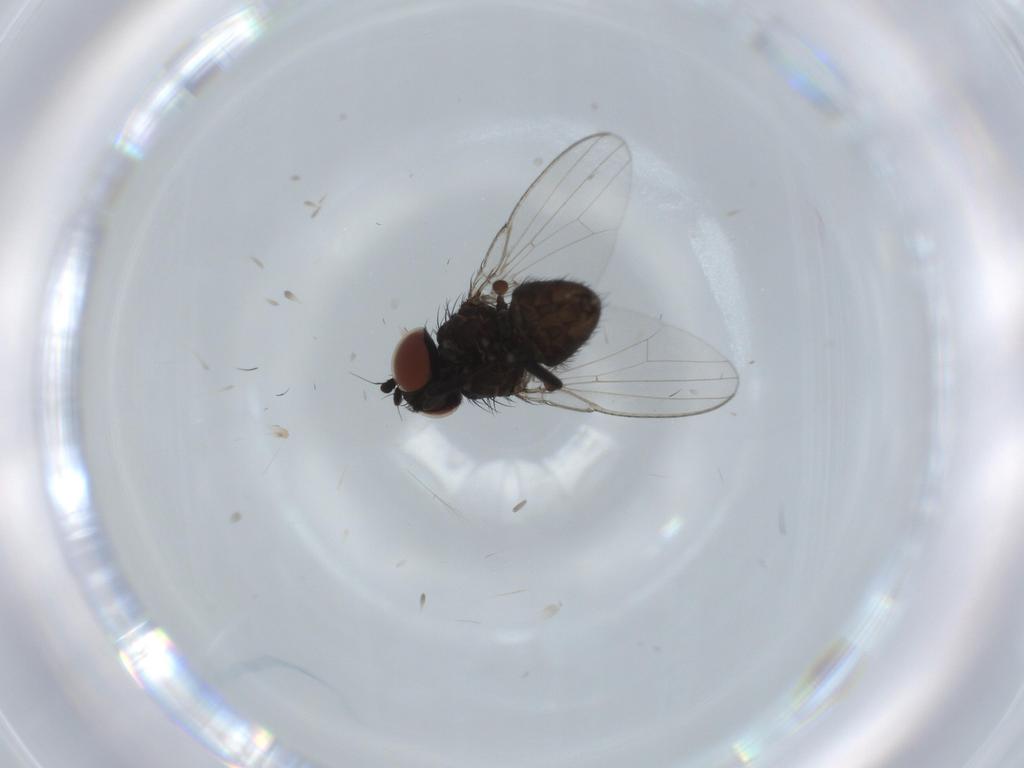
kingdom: Animalia
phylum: Arthropoda
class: Insecta
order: Diptera
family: Milichiidae
